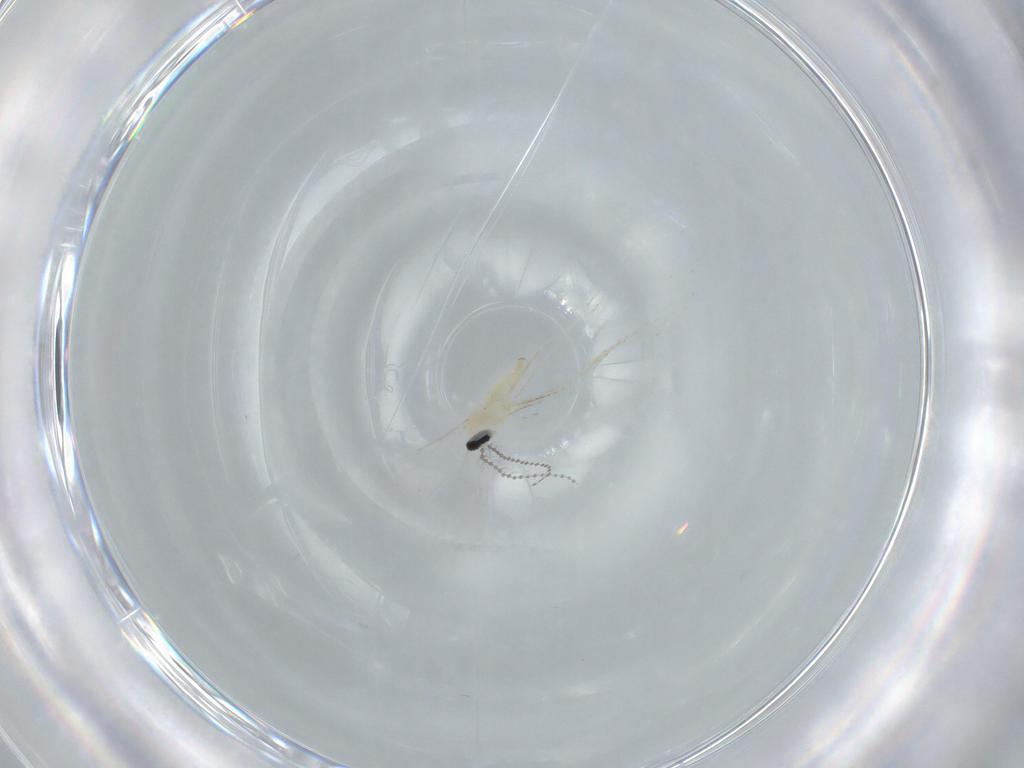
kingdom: Animalia
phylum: Arthropoda
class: Insecta
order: Diptera
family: Cecidomyiidae
